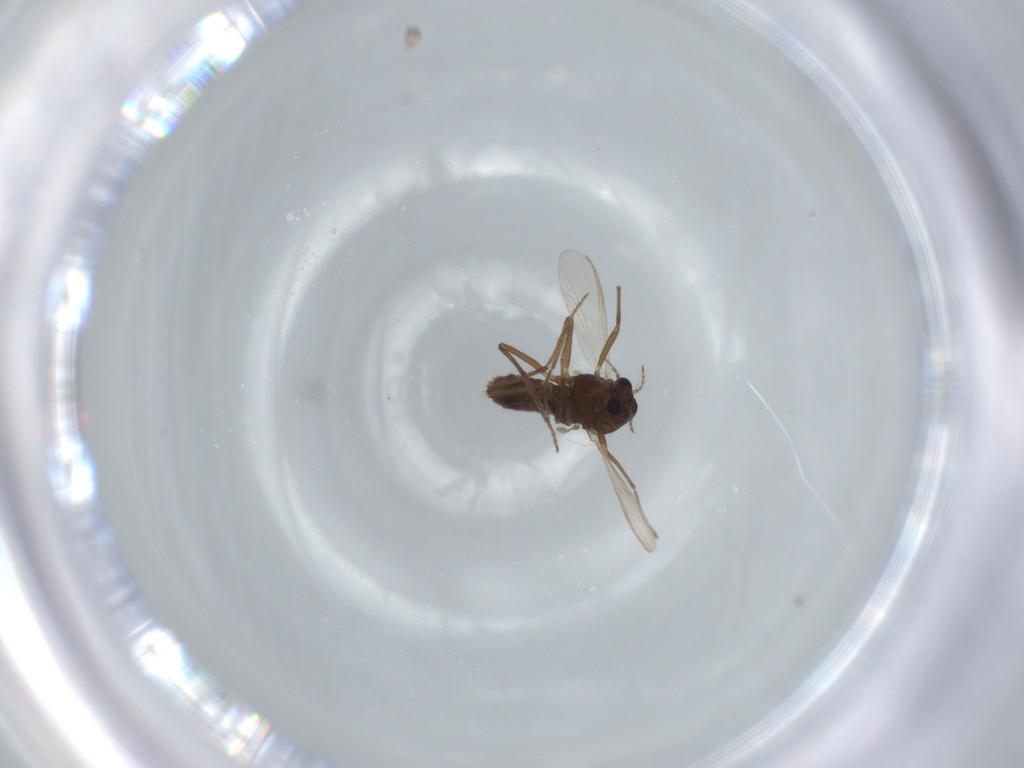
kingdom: Animalia
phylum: Arthropoda
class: Insecta
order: Diptera
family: Chironomidae
